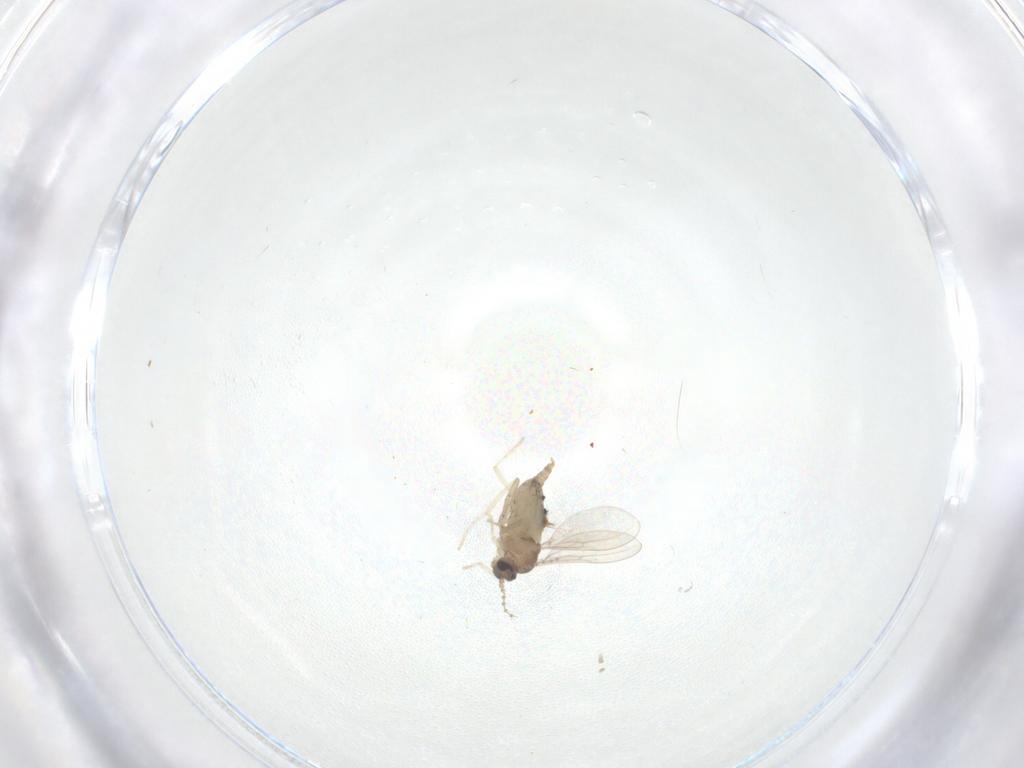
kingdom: Animalia
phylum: Arthropoda
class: Insecta
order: Diptera
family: Cecidomyiidae
